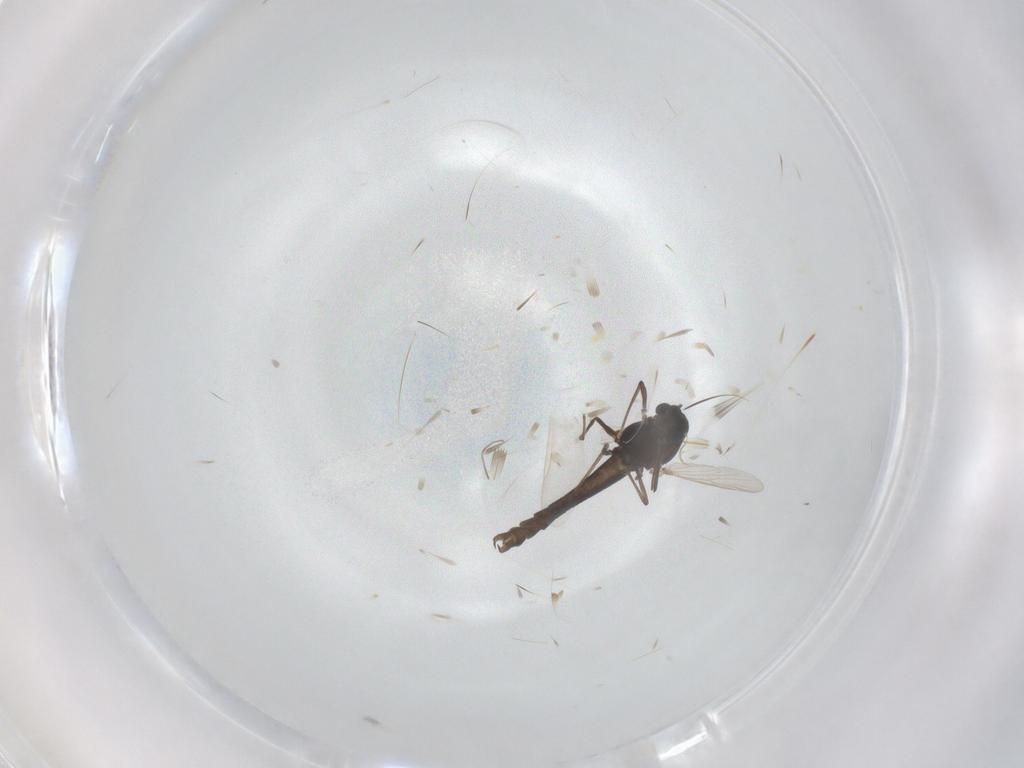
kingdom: Animalia
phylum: Arthropoda
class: Insecta
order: Diptera
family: Chironomidae
